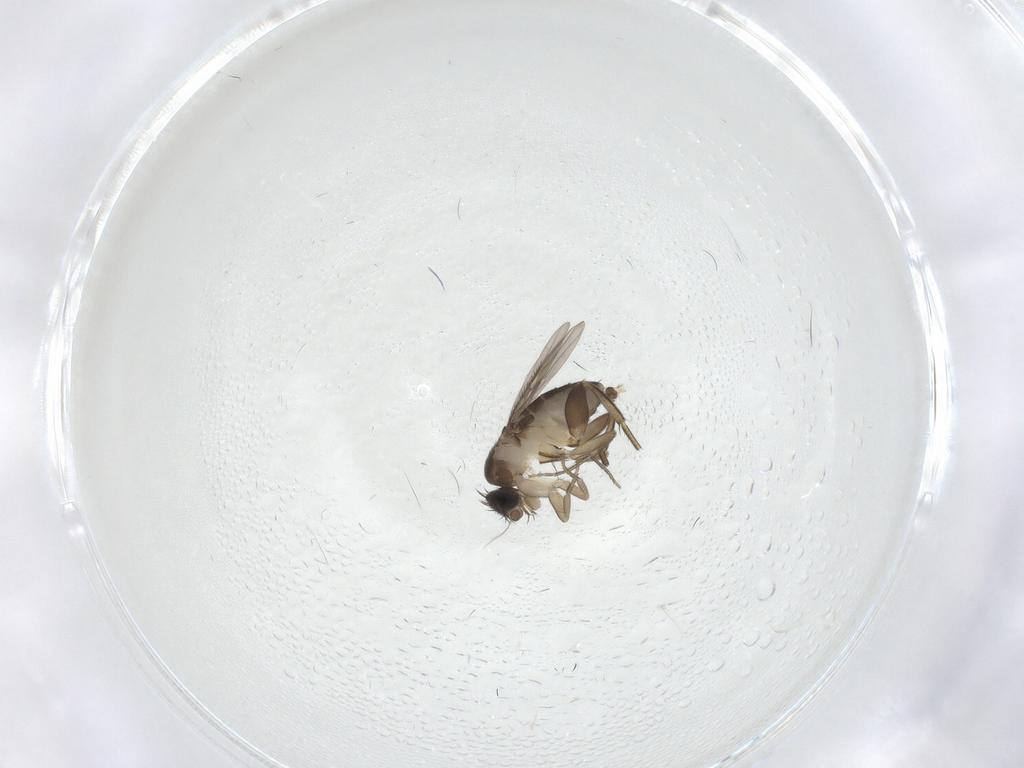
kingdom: Animalia
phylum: Arthropoda
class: Insecta
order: Diptera
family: Phoridae
